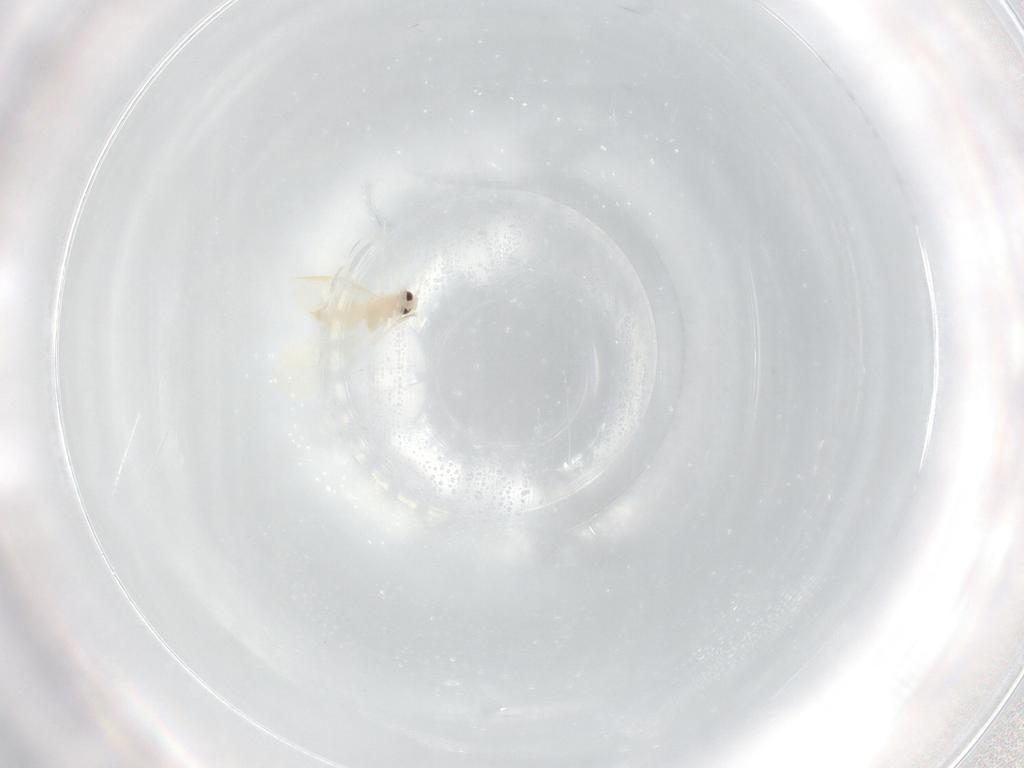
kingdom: Animalia
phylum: Arthropoda
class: Insecta
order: Hemiptera
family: Aleyrodidae
